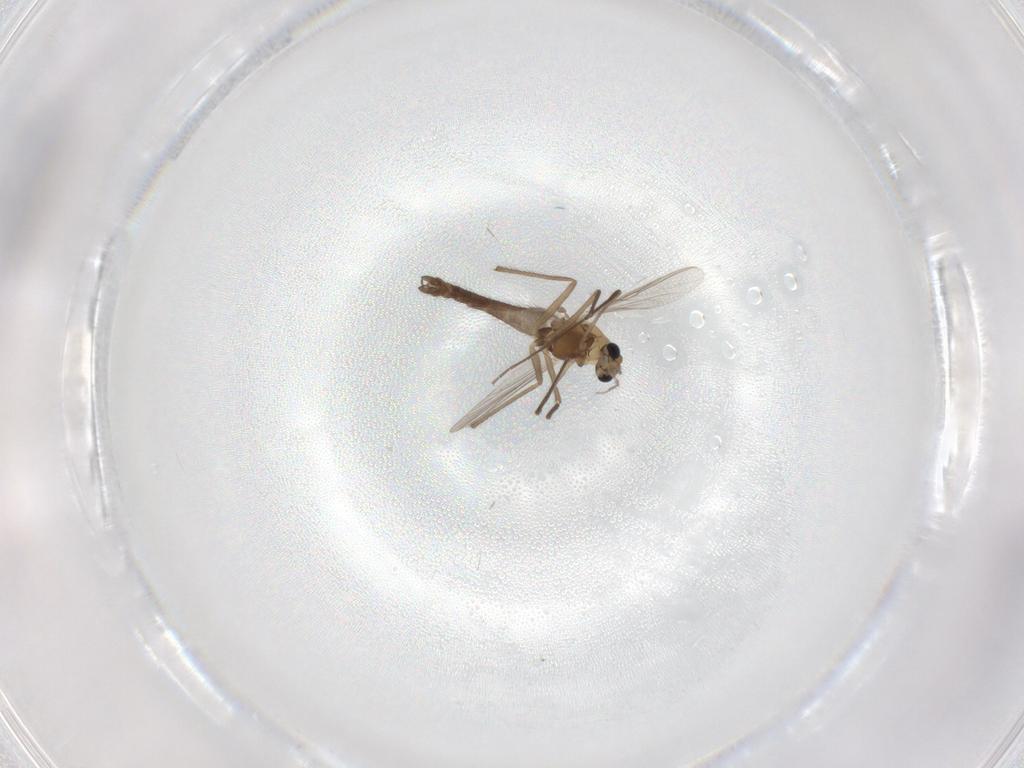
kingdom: Animalia
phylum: Arthropoda
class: Insecta
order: Diptera
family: Chironomidae
